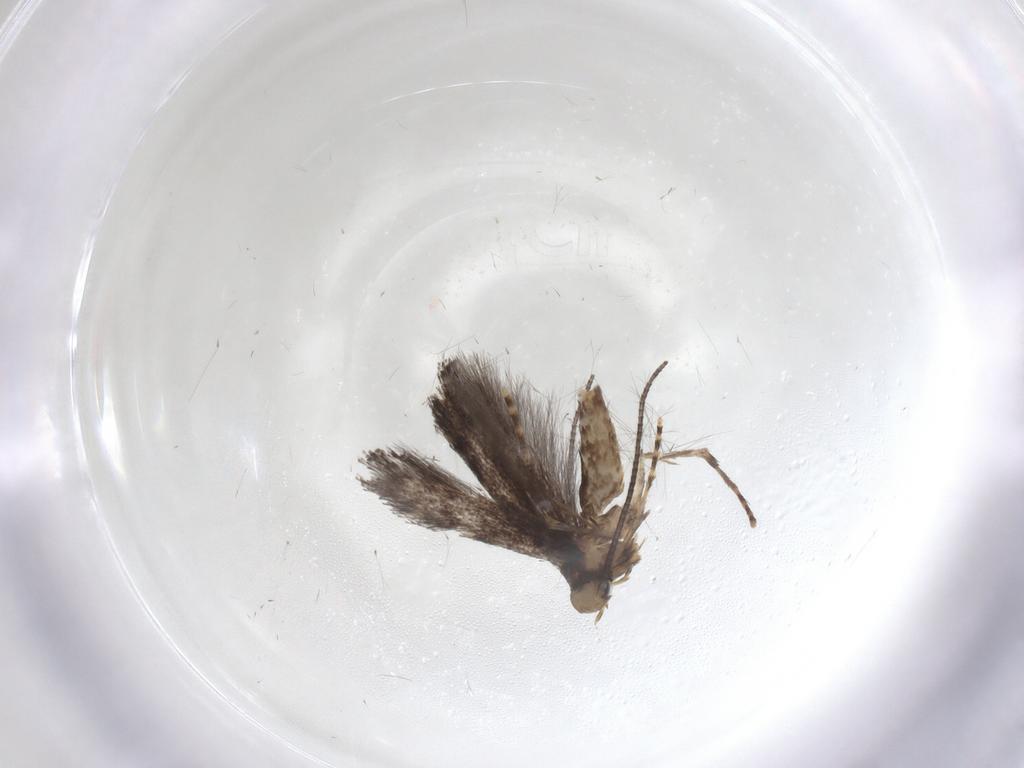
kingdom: Animalia
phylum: Arthropoda
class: Insecta
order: Lepidoptera
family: Gracillariidae
